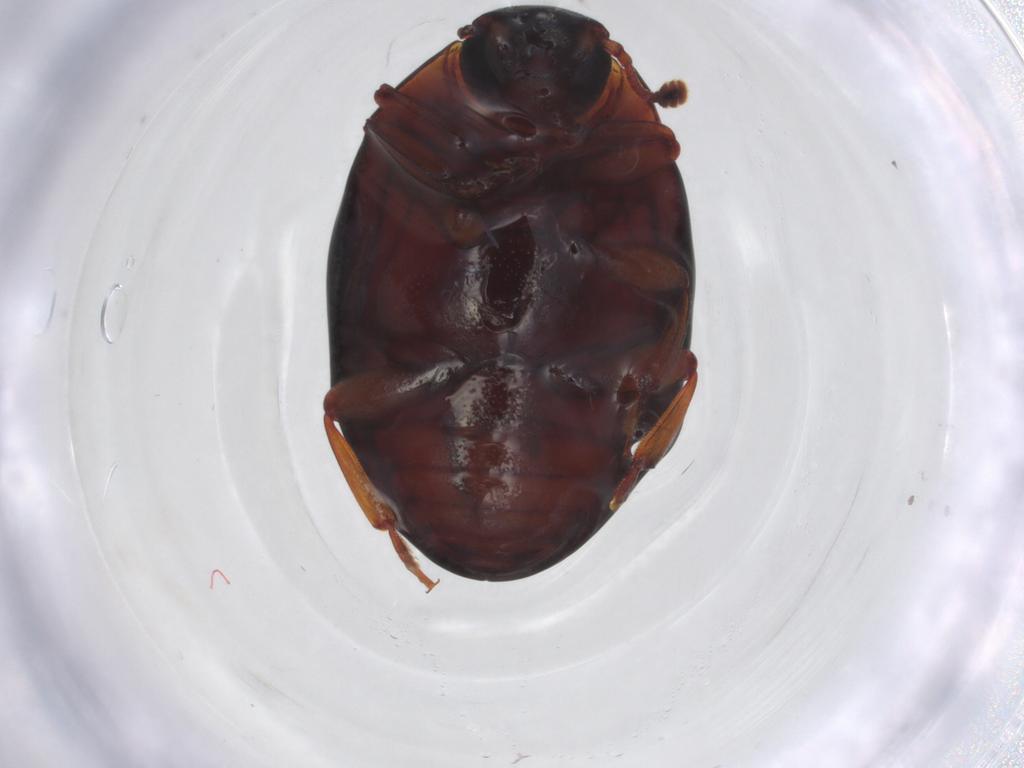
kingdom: Animalia
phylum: Arthropoda
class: Insecta
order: Coleoptera
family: Zopheridae
